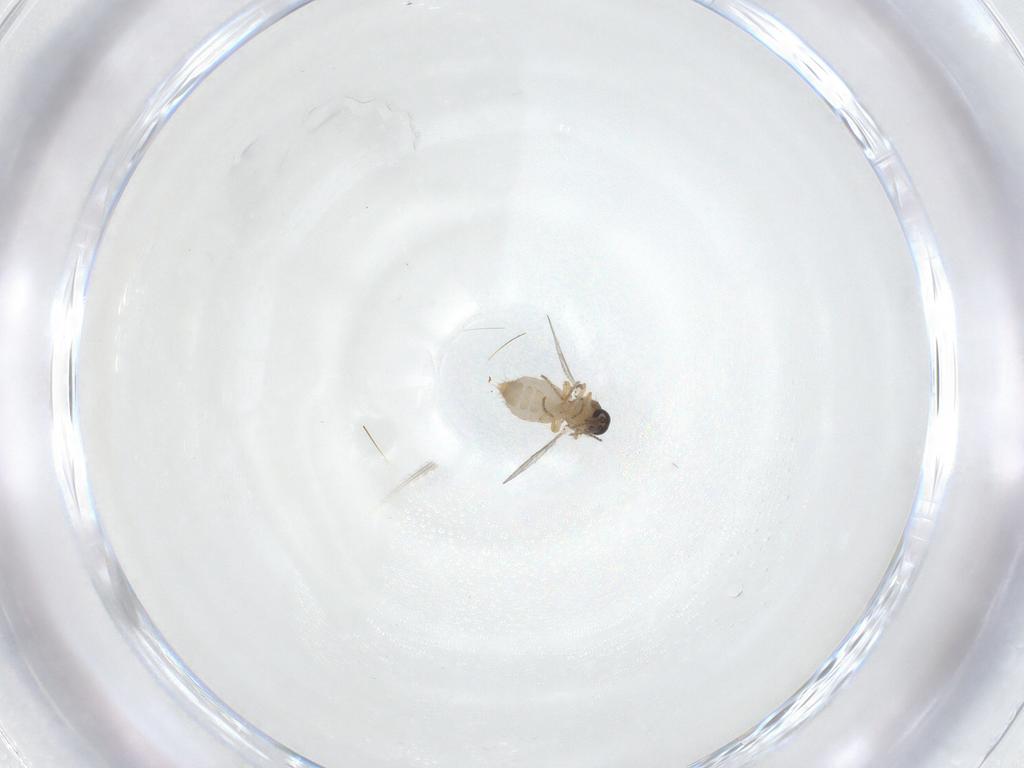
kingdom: Animalia
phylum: Arthropoda
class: Insecta
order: Diptera
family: Ceratopogonidae
